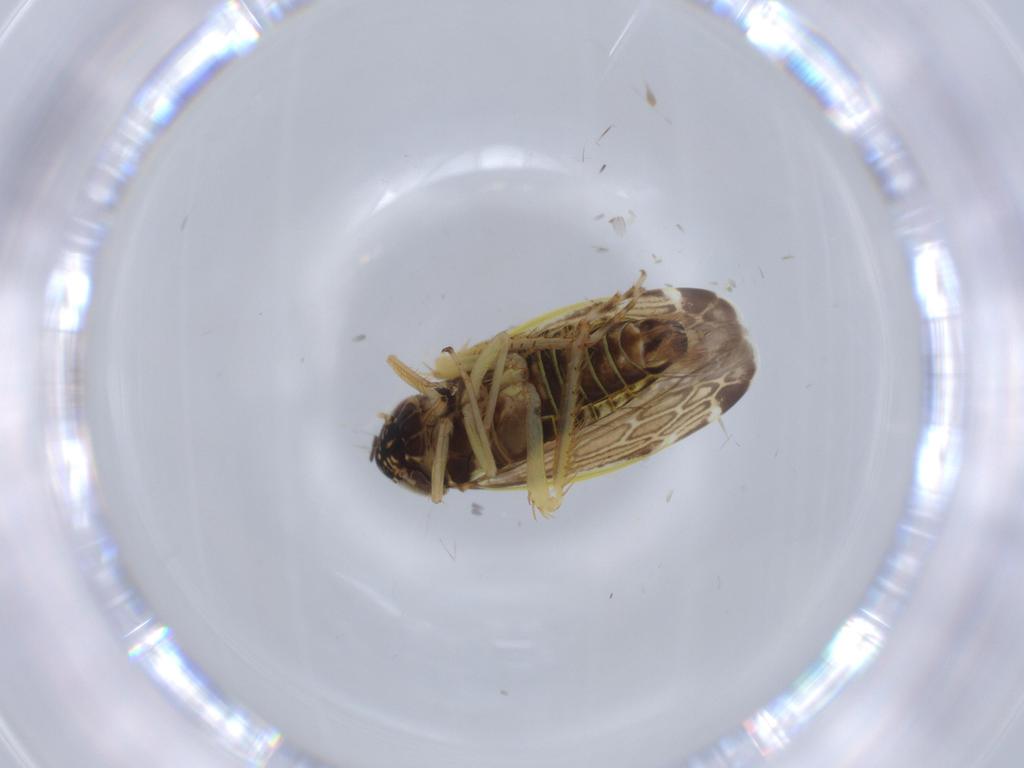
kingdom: Animalia
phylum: Arthropoda
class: Insecta
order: Hemiptera
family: Cicadellidae
